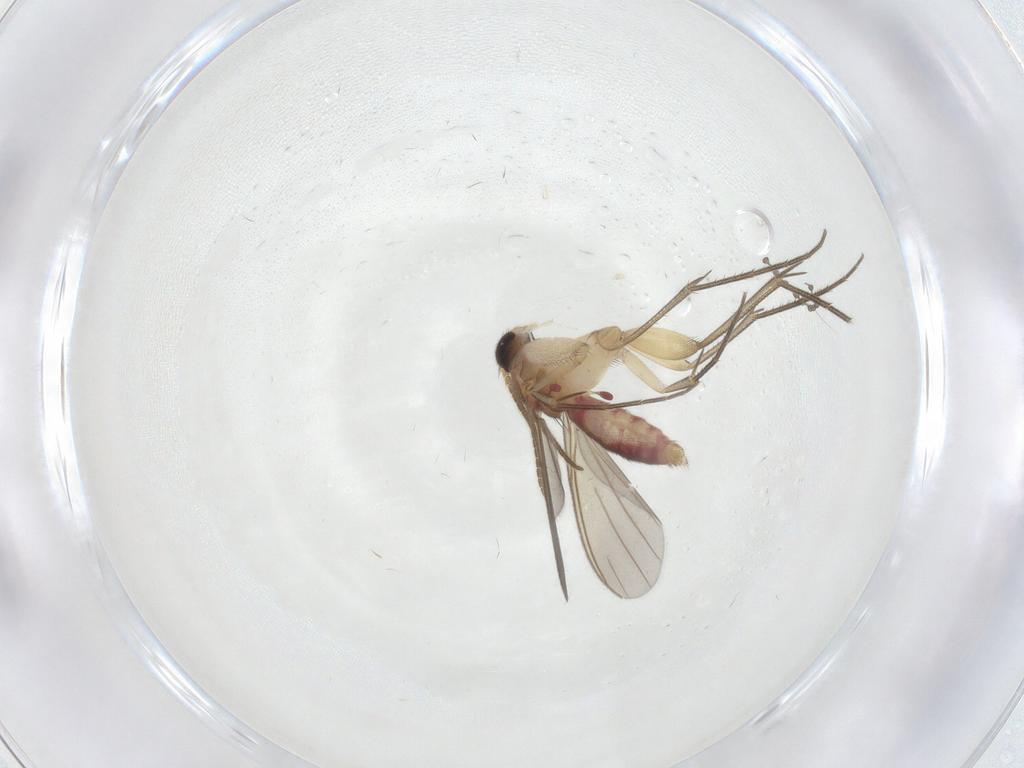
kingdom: Animalia
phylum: Arthropoda
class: Insecta
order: Diptera
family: Mycetophilidae
